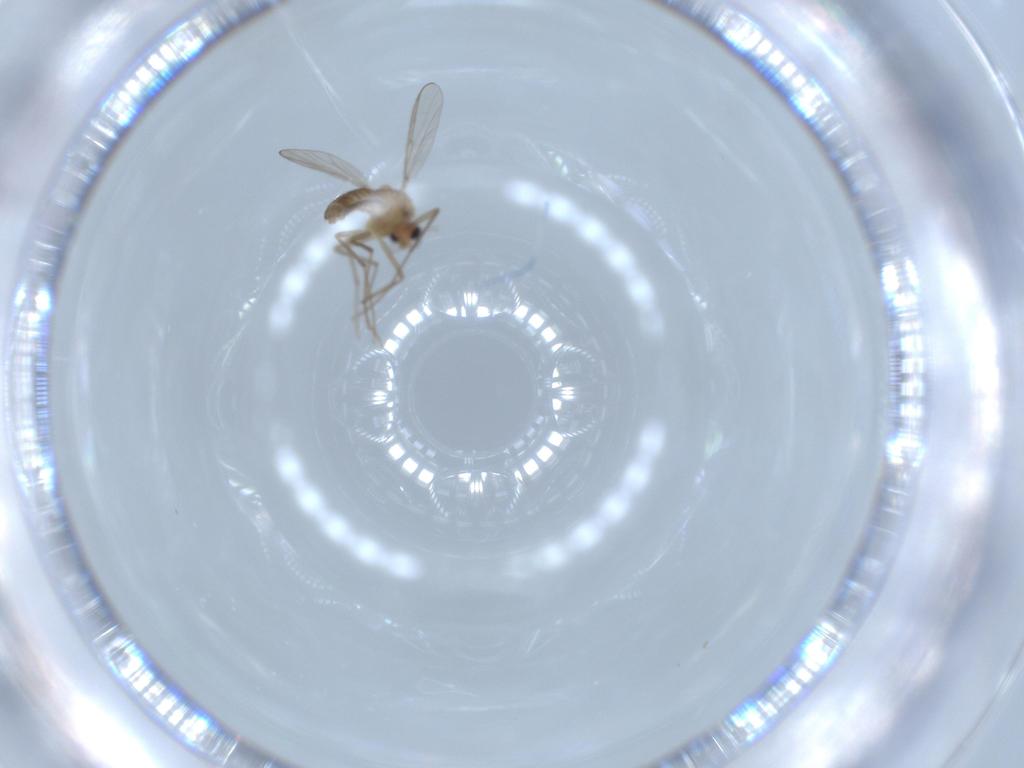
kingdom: Animalia
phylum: Arthropoda
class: Insecta
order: Diptera
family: Chironomidae
